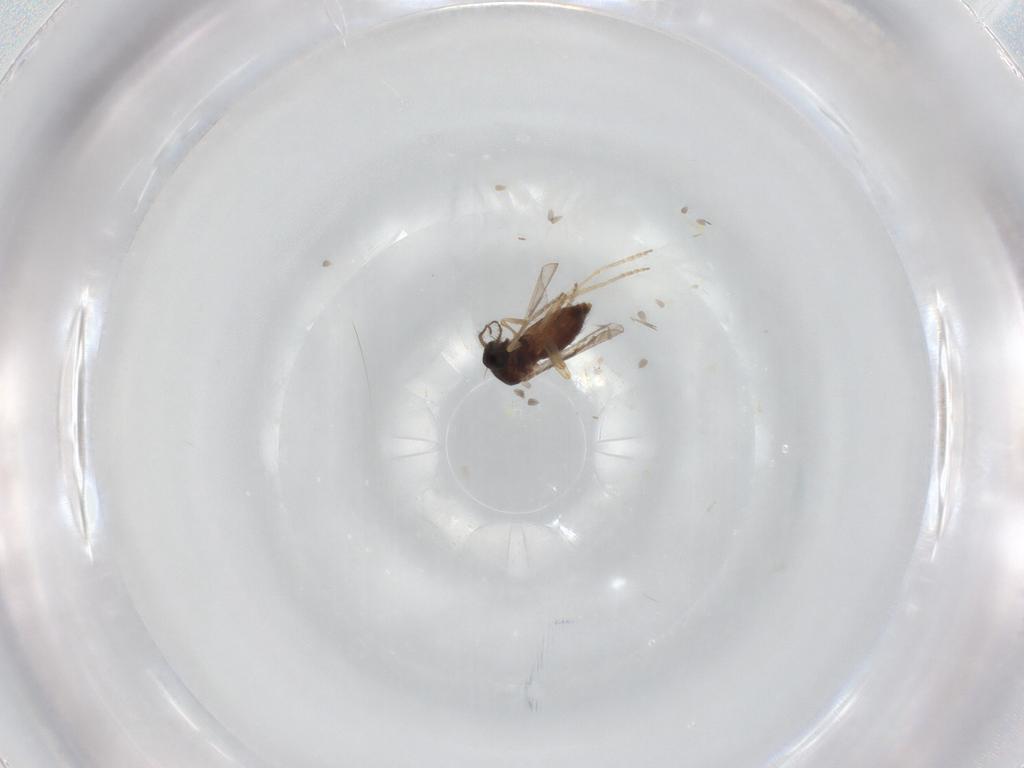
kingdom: Animalia
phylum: Arthropoda
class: Insecta
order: Diptera
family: Ceratopogonidae
